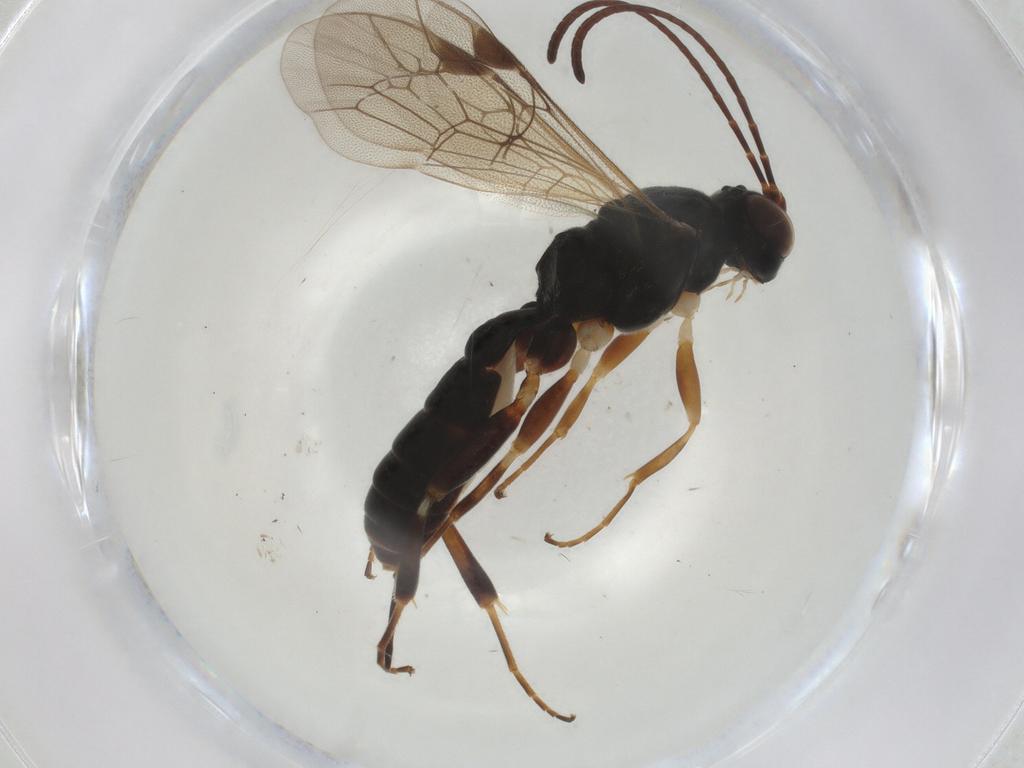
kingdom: Animalia
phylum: Arthropoda
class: Insecta
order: Hymenoptera
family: Ichneumonidae
